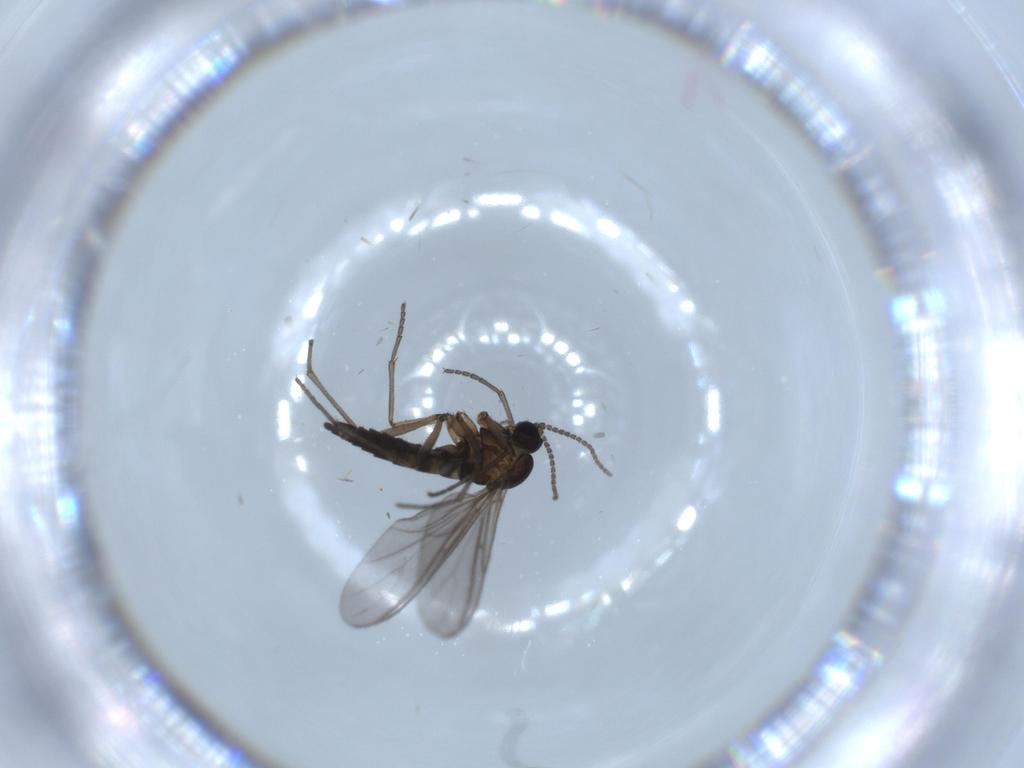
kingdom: Animalia
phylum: Arthropoda
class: Insecta
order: Diptera
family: Sciaridae
